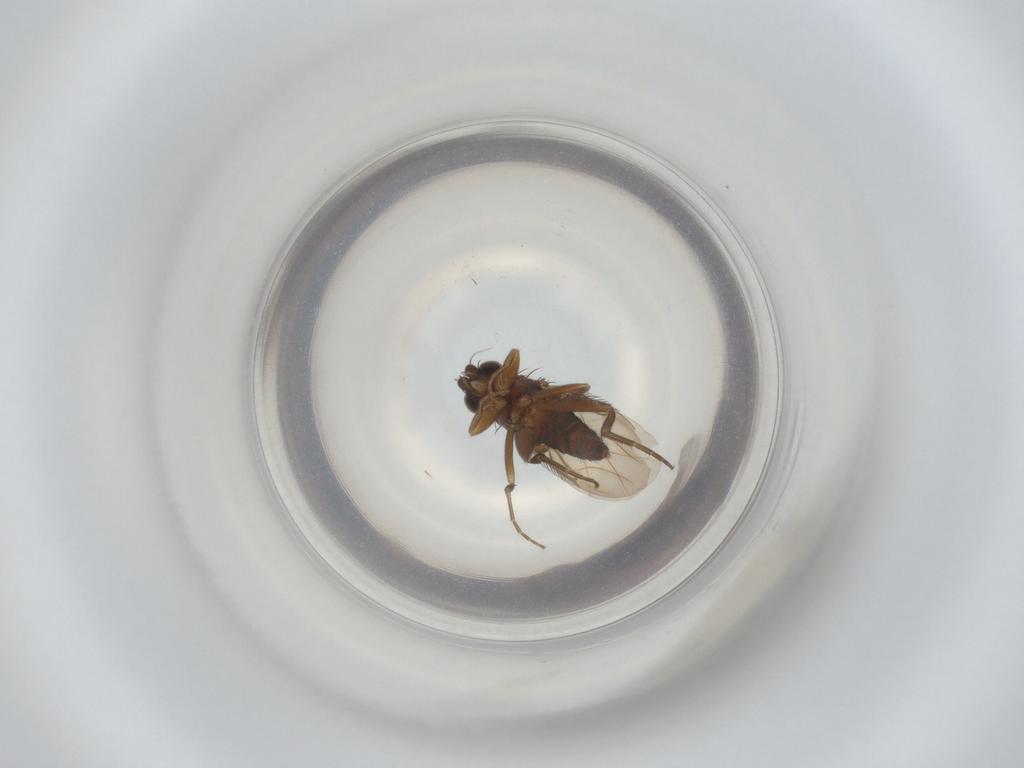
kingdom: Animalia
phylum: Arthropoda
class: Insecta
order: Diptera
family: Phoridae
